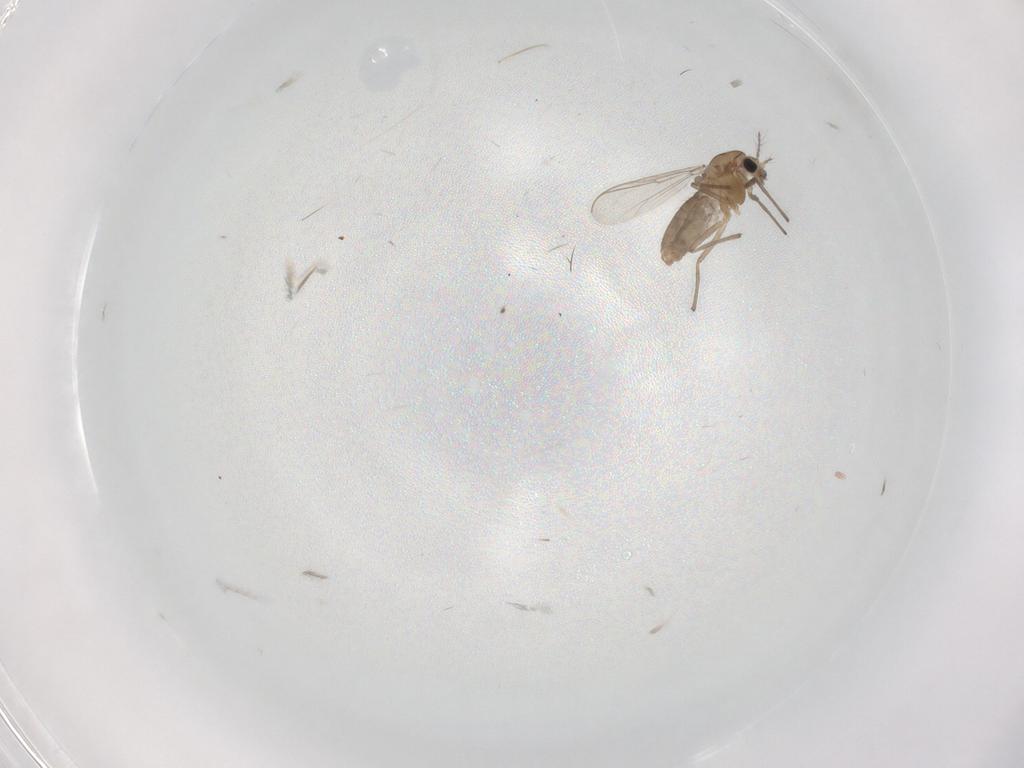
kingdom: Animalia
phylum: Arthropoda
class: Insecta
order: Diptera
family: Chironomidae
